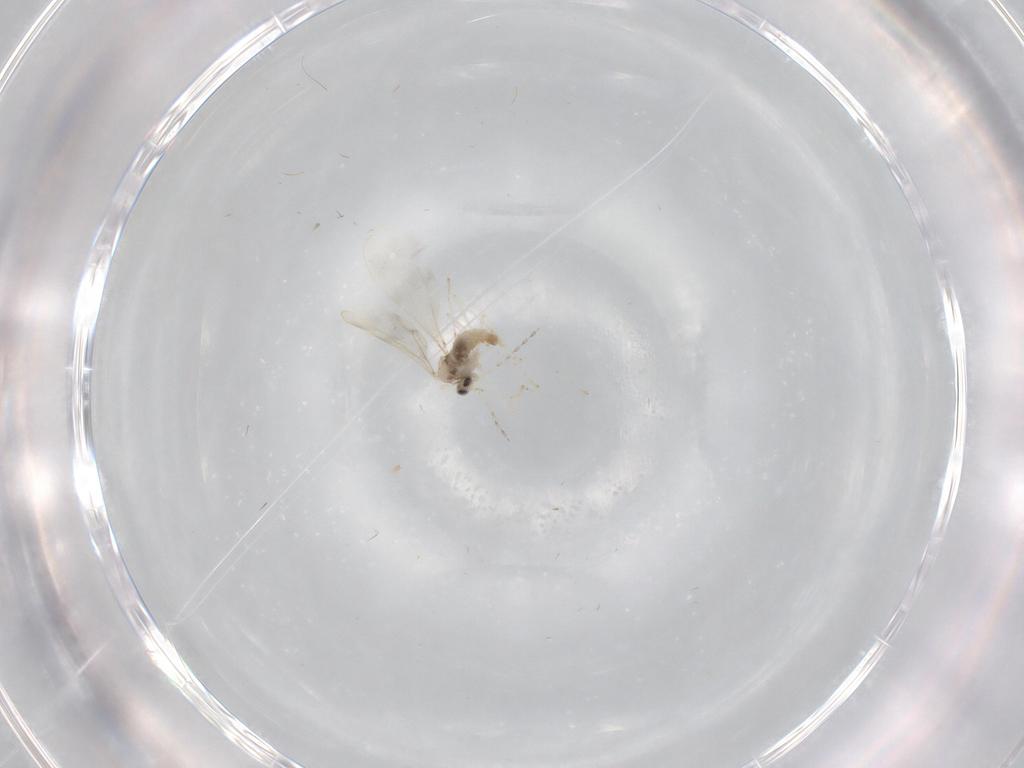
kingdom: Animalia
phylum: Arthropoda
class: Insecta
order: Diptera
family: Cecidomyiidae
